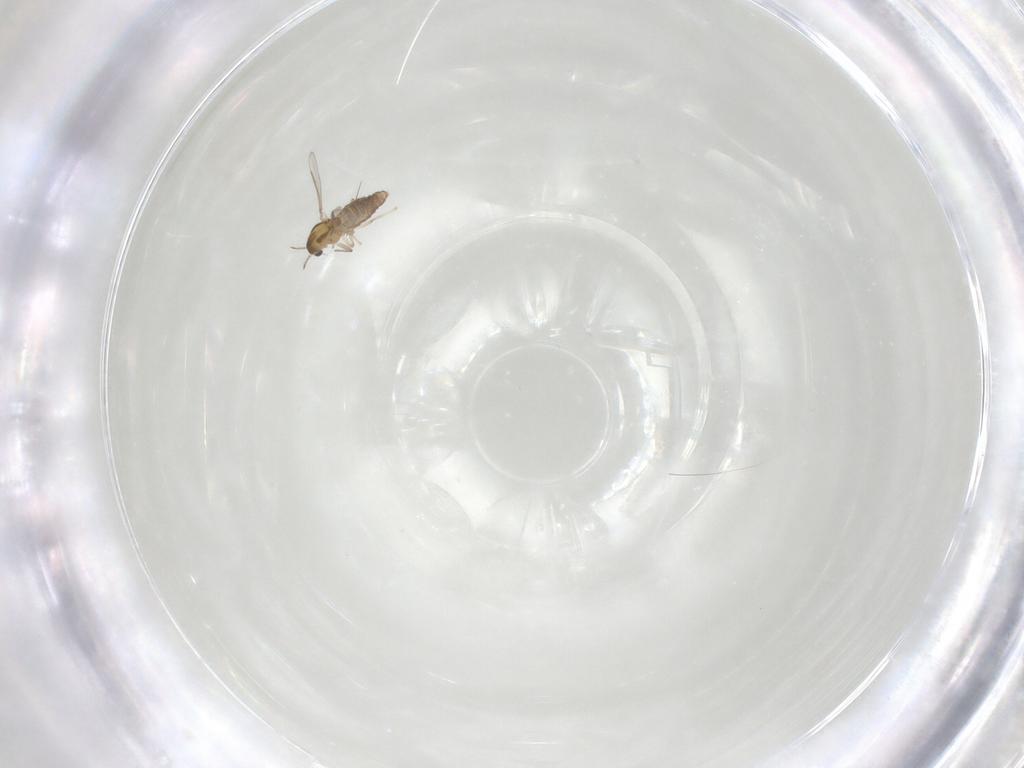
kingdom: Animalia
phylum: Arthropoda
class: Insecta
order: Diptera
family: Chironomidae
